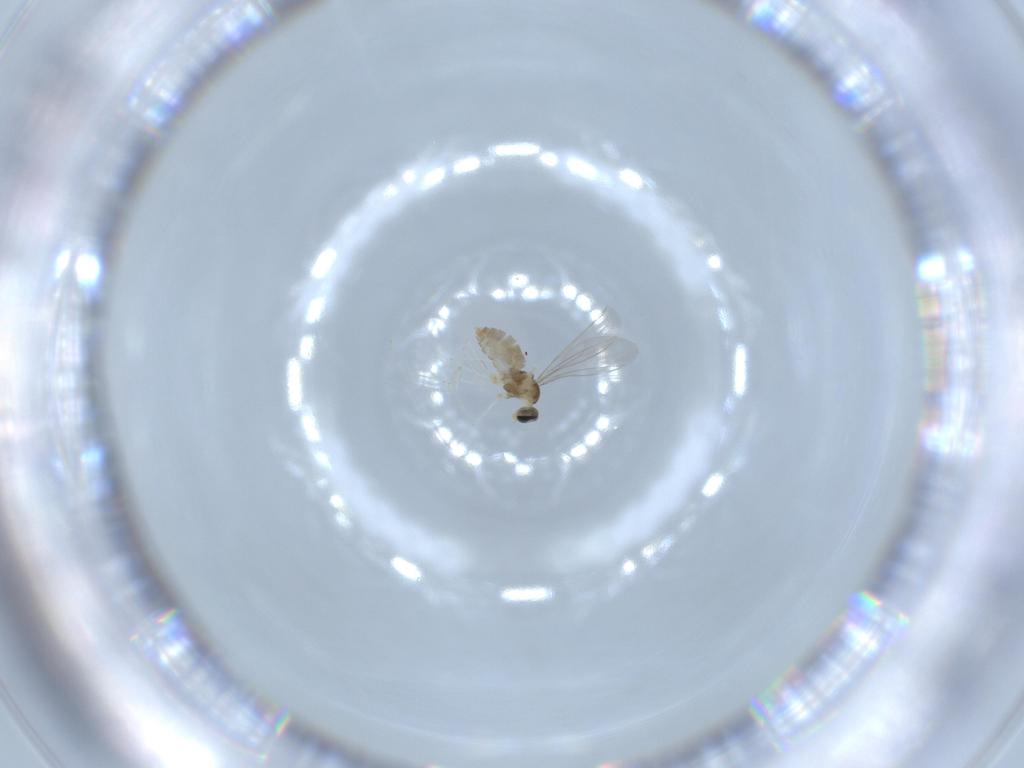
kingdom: Animalia
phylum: Arthropoda
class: Insecta
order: Diptera
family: Cecidomyiidae
